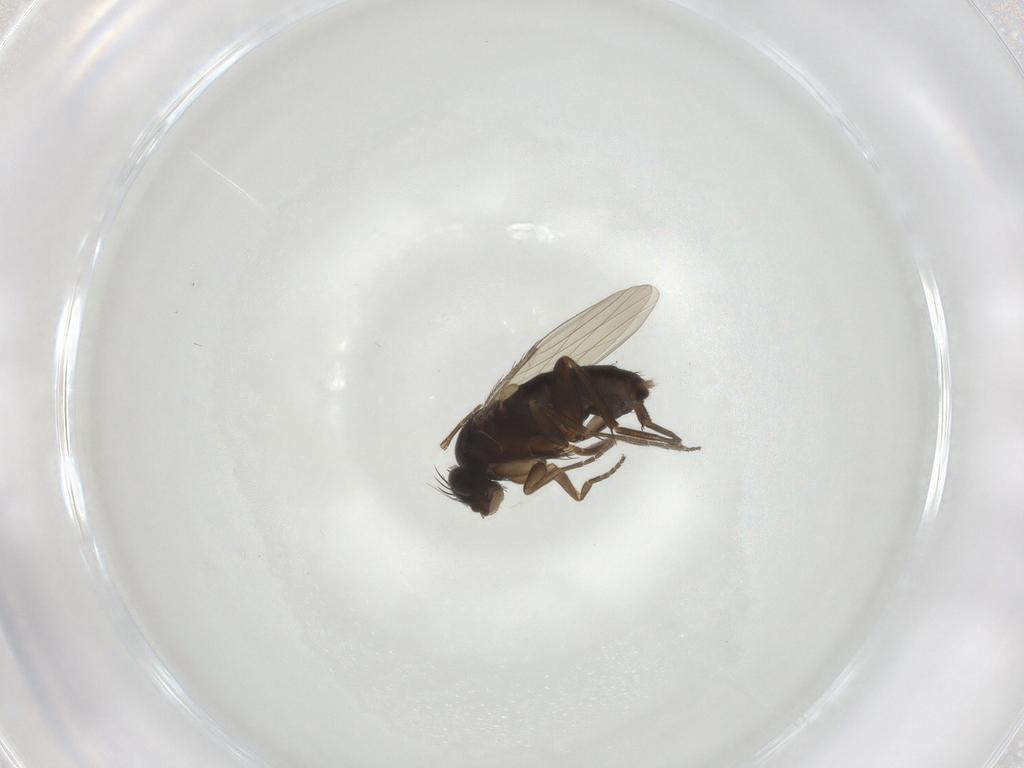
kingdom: Animalia
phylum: Arthropoda
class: Insecta
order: Diptera
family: Phoridae
